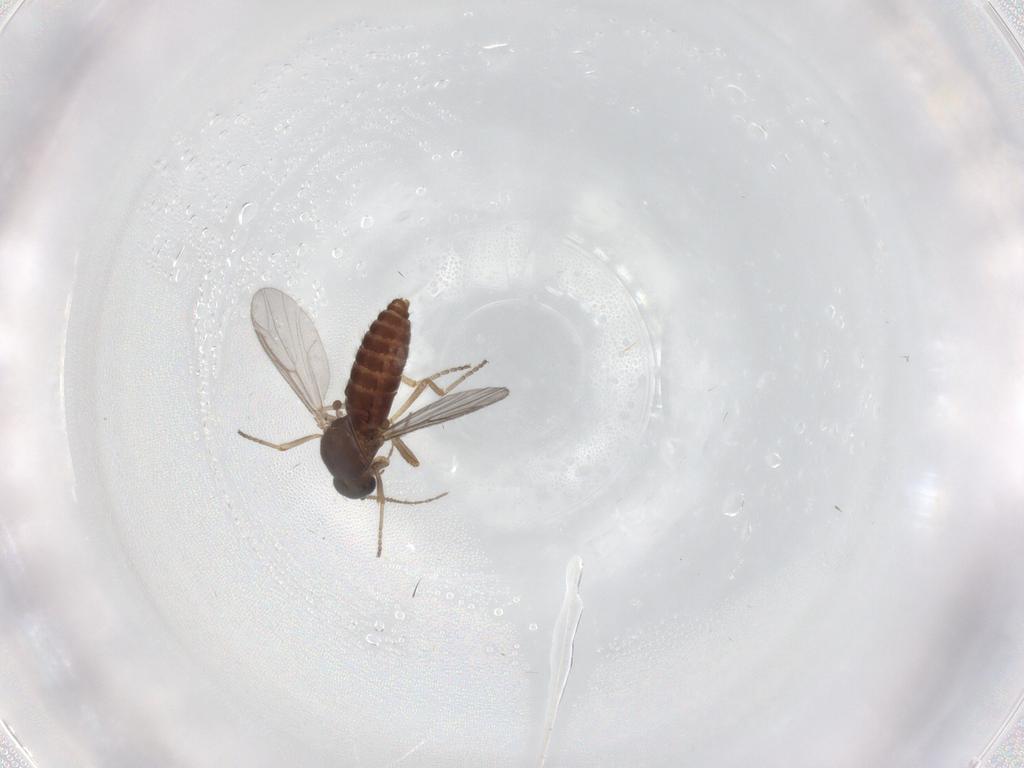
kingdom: Animalia
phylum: Arthropoda
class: Insecta
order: Diptera
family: Ceratopogonidae
